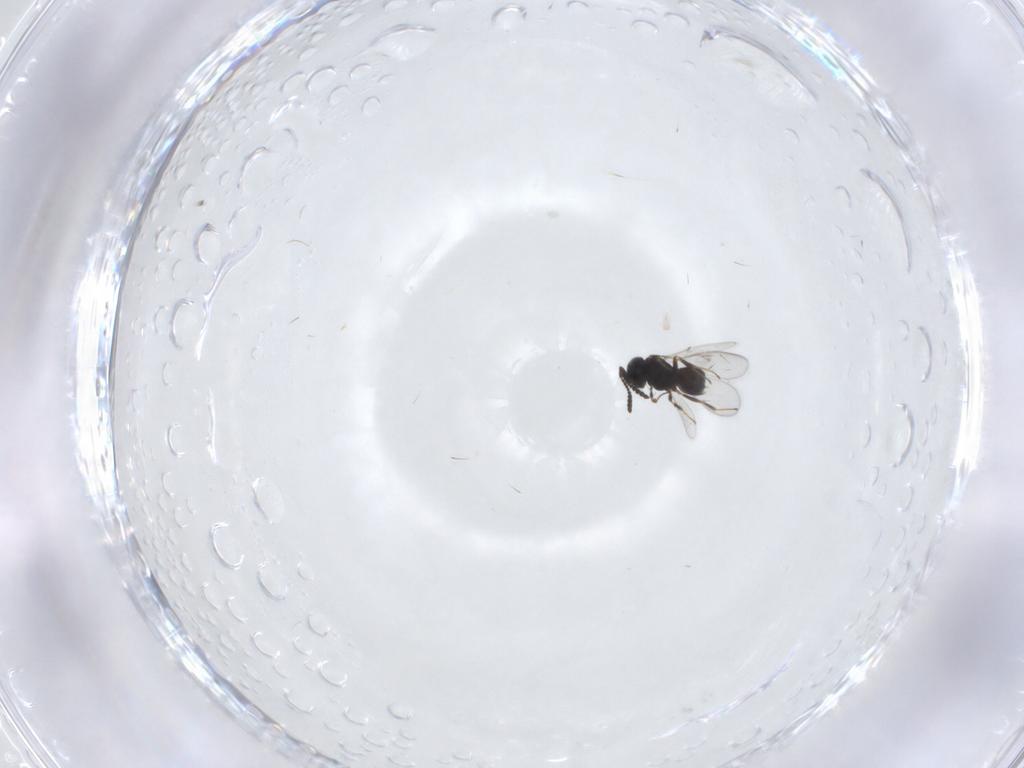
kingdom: Animalia
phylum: Arthropoda
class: Insecta
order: Hymenoptera
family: Scelionidae
